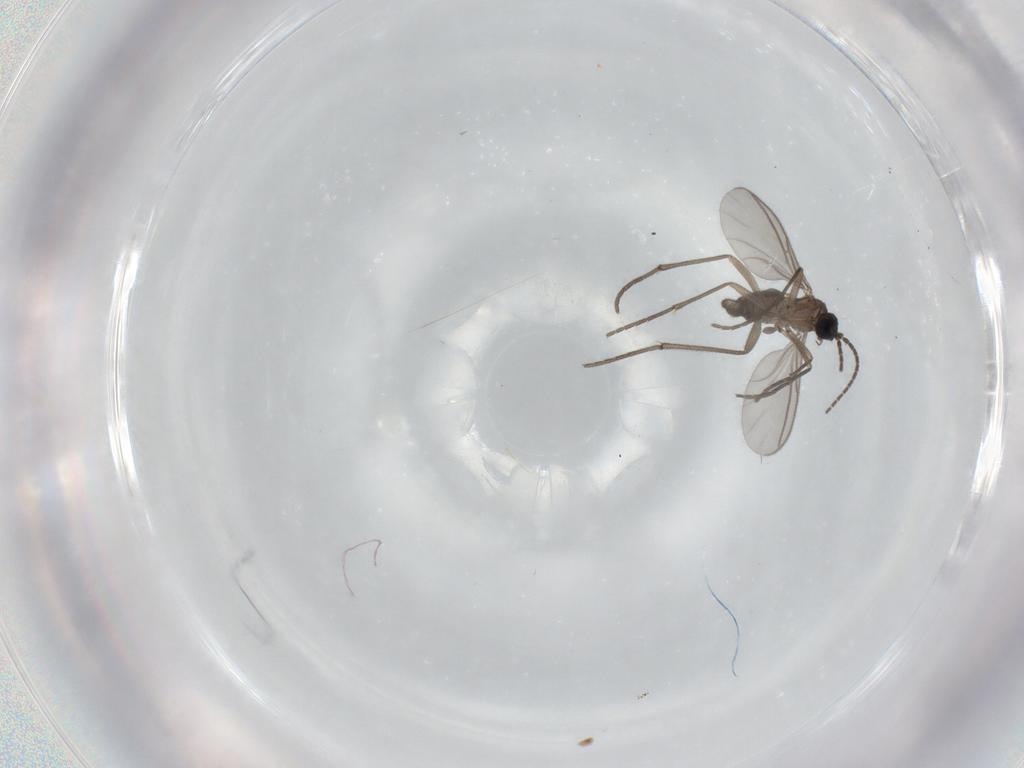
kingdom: Animalia
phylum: Arthropoda
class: Insecta
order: Diptera
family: Sciaridae
